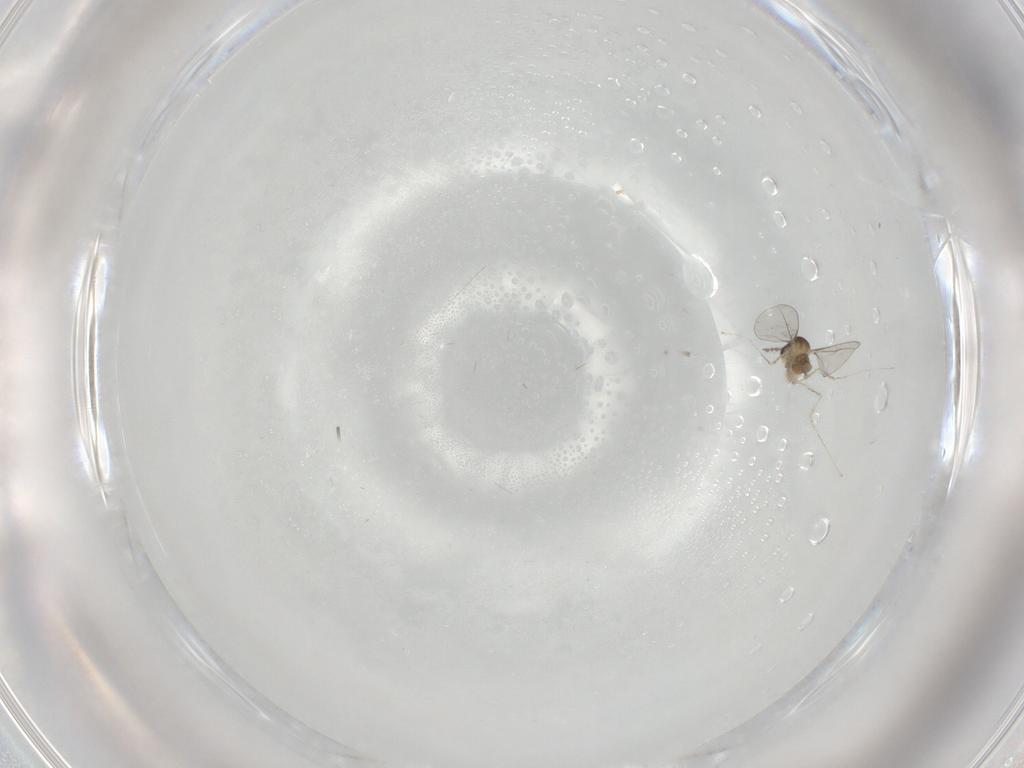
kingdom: Animalia
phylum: Arthropoda
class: Insecta
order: Diptera
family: Cecidomyiidae
